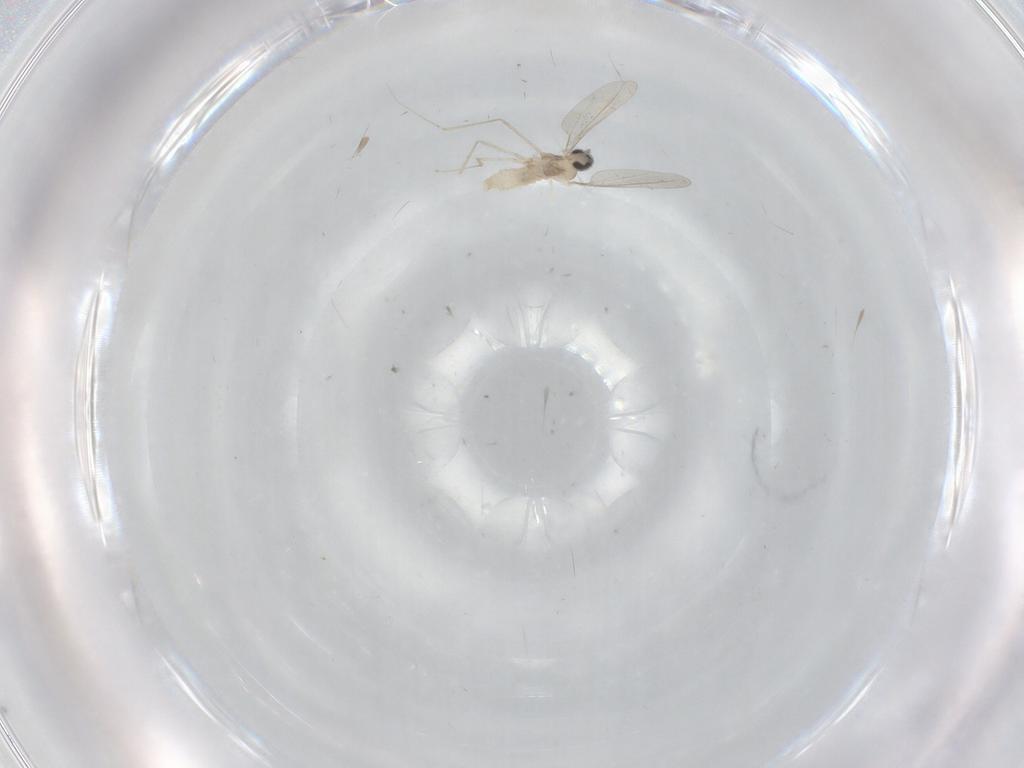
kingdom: Animalia
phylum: Arthropoda
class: Insecta
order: Diptera
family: Cecidomyiidae
